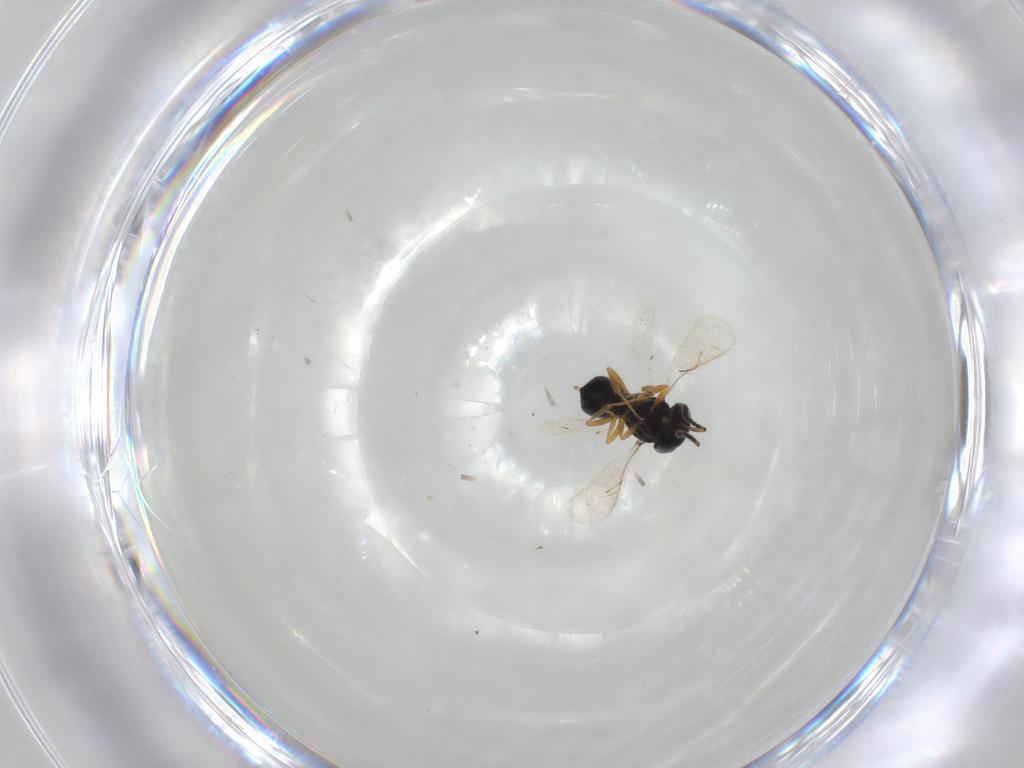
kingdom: Animalia
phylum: Arthropoda
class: Insecta
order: Hymenoptera
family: Scelionidae
